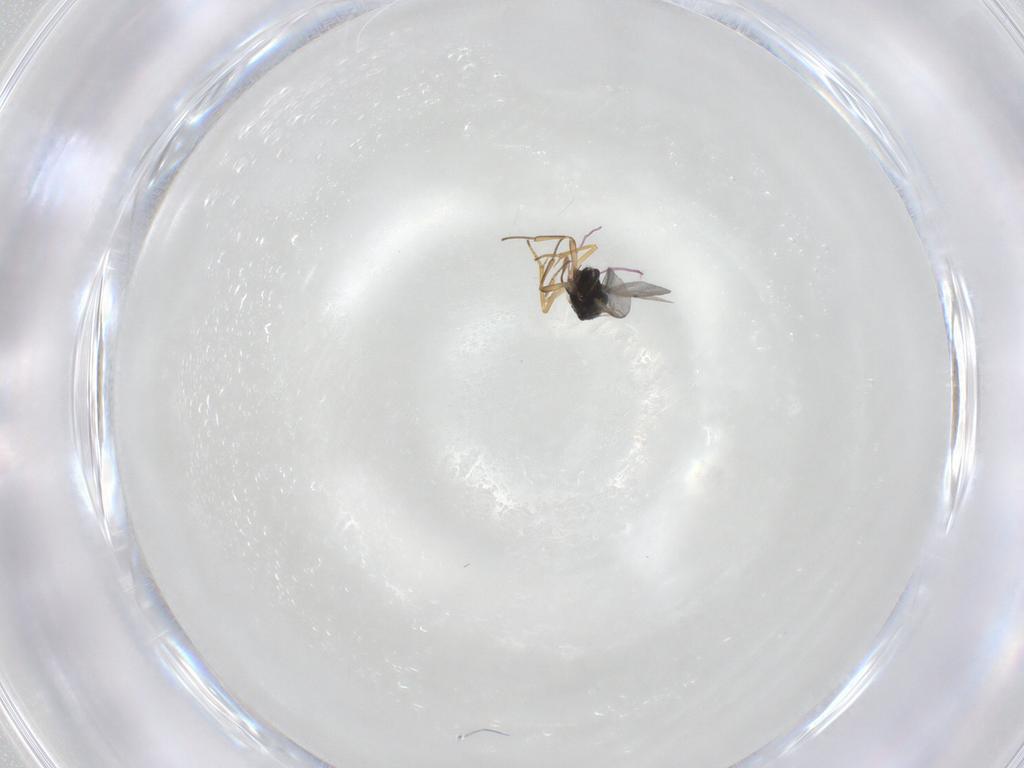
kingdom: Animalia
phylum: Arthropoda
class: Insecta
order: Hymenoptera
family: Encyrtidae
